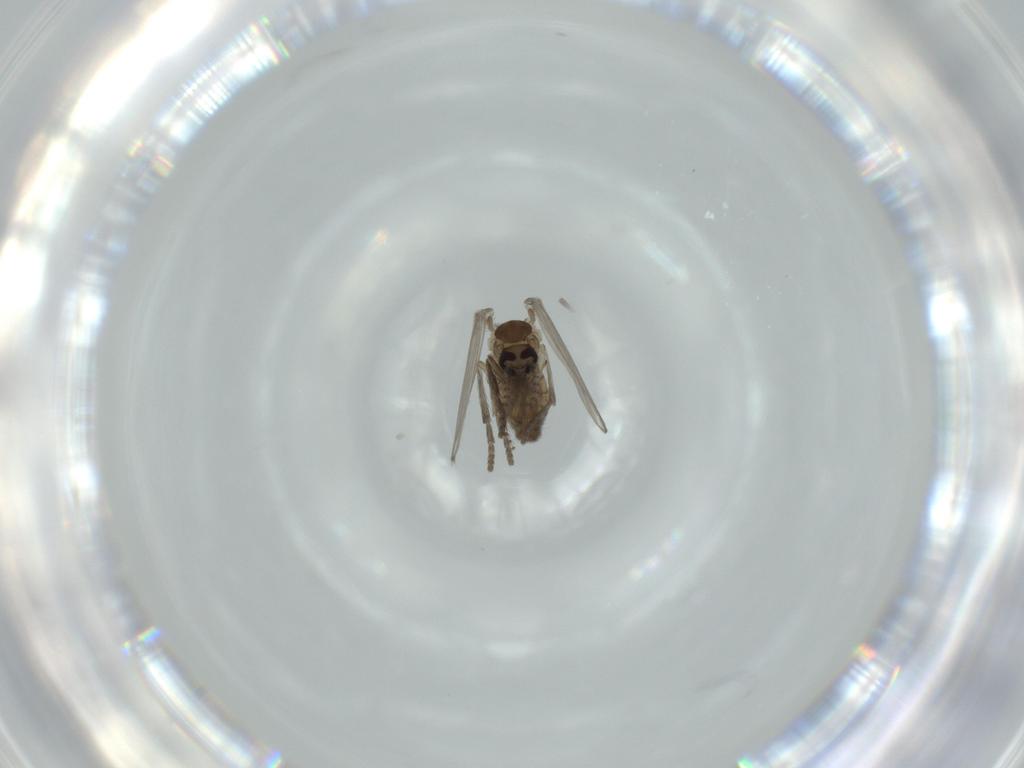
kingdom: Animalia
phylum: Arthropoda
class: Insecta
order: Diptera
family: Psychodidae
